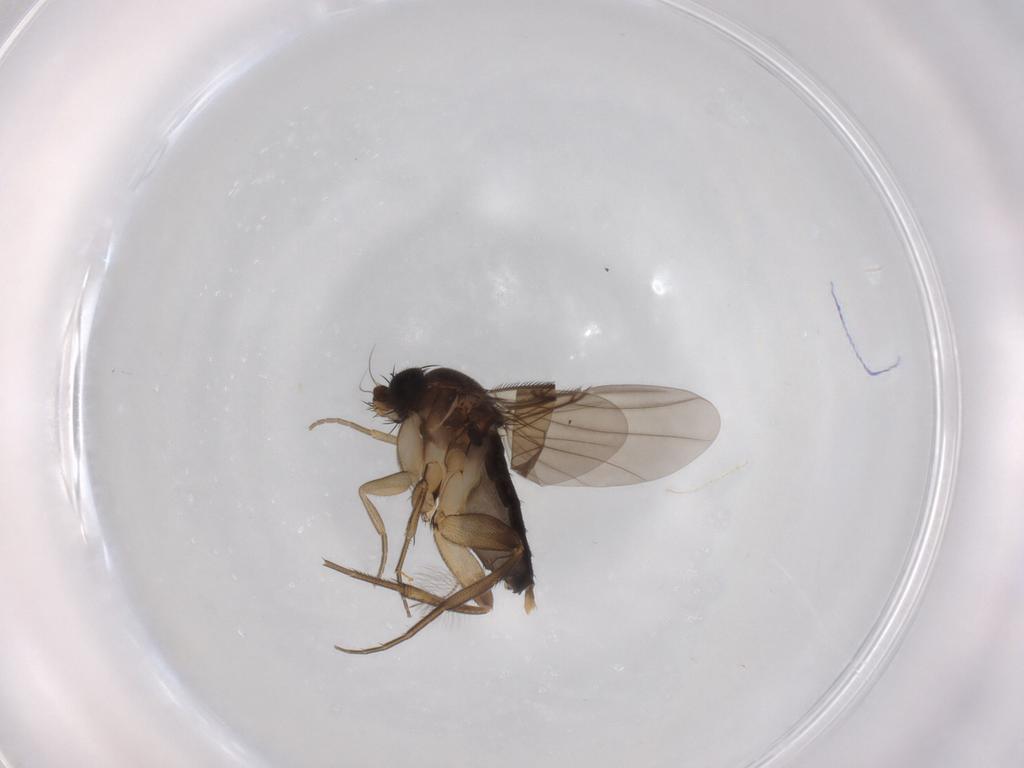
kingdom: Animalia
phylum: Arthropoda
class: Insecta
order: Diptera
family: Phoridae
